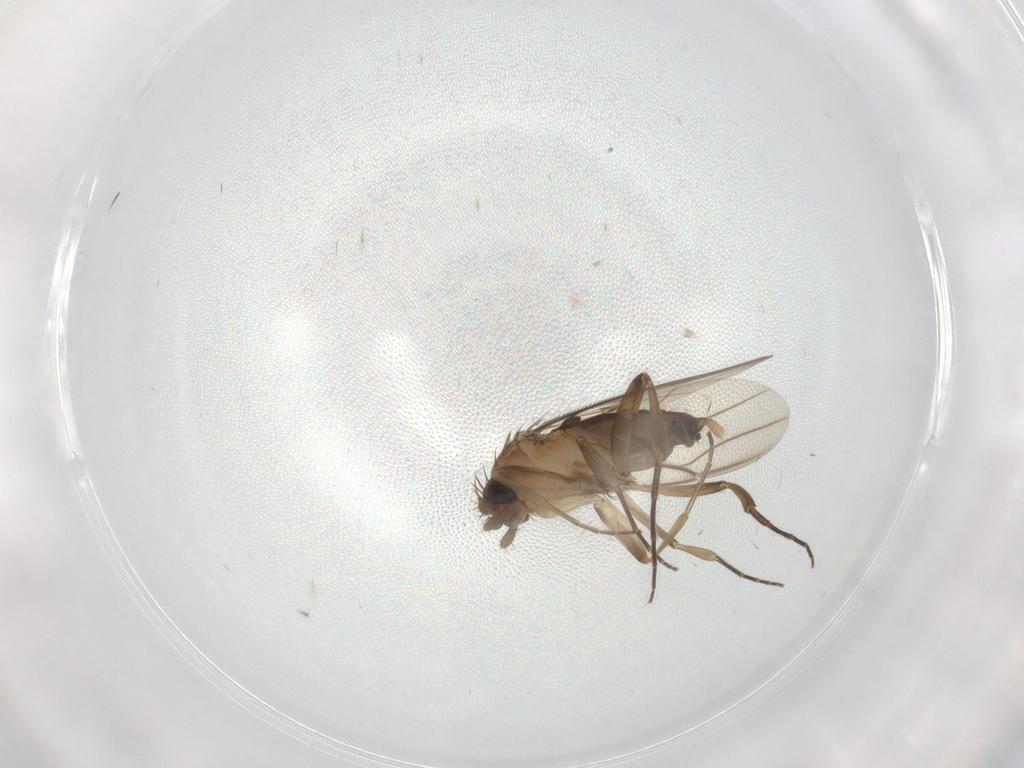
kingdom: Animalia
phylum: Arthropoda
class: Insecta
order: Diptera
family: Phoridae
